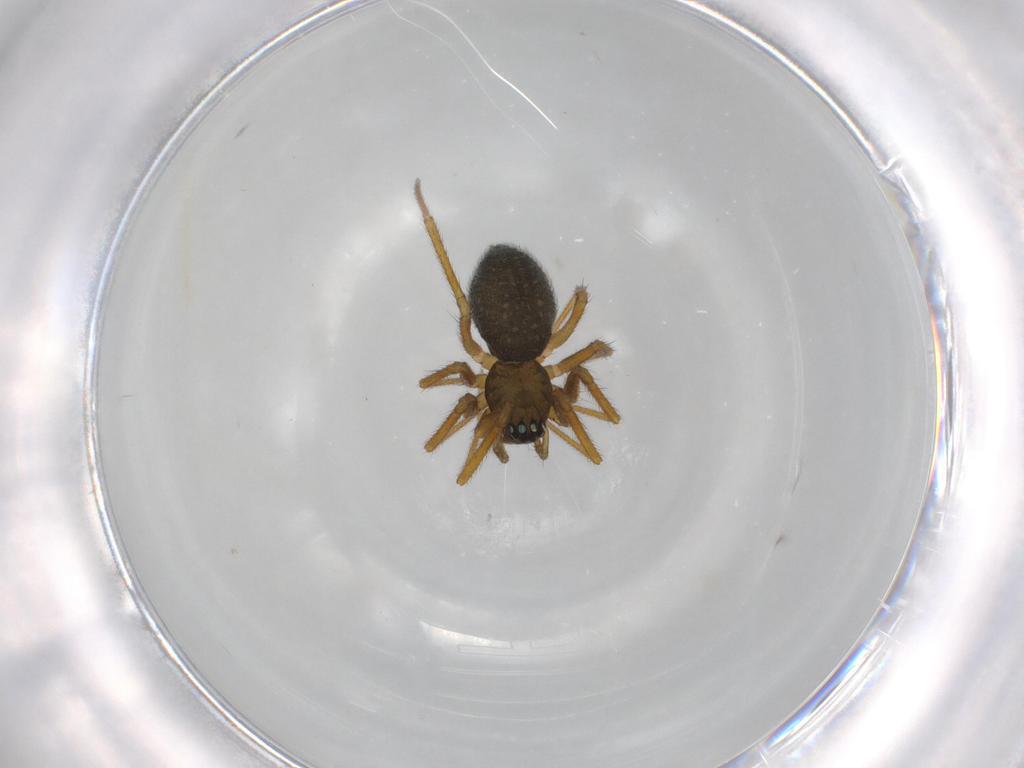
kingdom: Animalia
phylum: Arthropoda
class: Arachnida
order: Araneae
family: Linyphiidae
